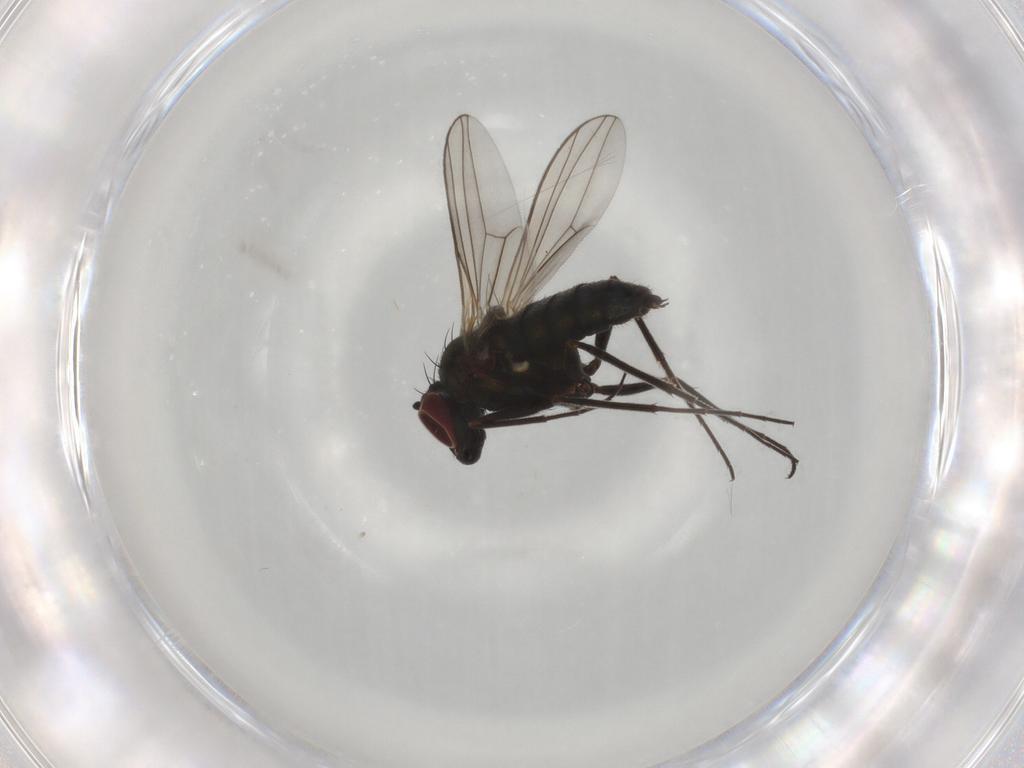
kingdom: Animalia
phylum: Arthropoda
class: Insecta
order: Diptera
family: Dolichopodidae
